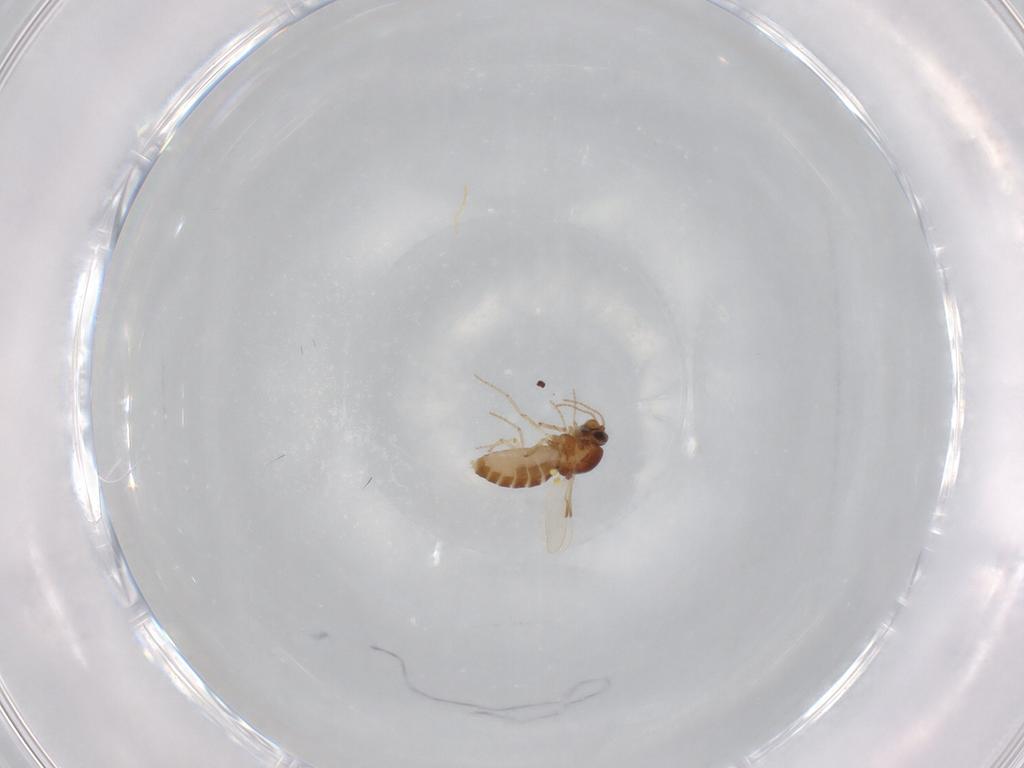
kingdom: Animalia
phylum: Arthropoda
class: Insecta
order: Diptera
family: Ceratopogonidae
